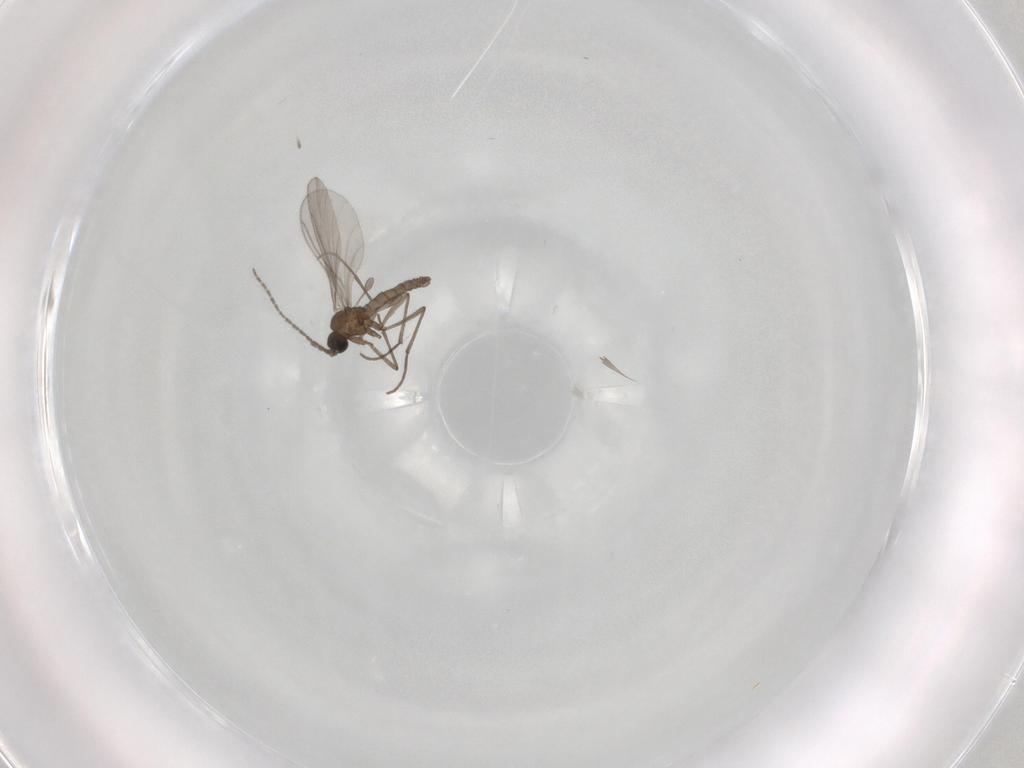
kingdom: Animalia
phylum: Arthropoda
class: Insecta
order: Diptera
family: Sciaridae
